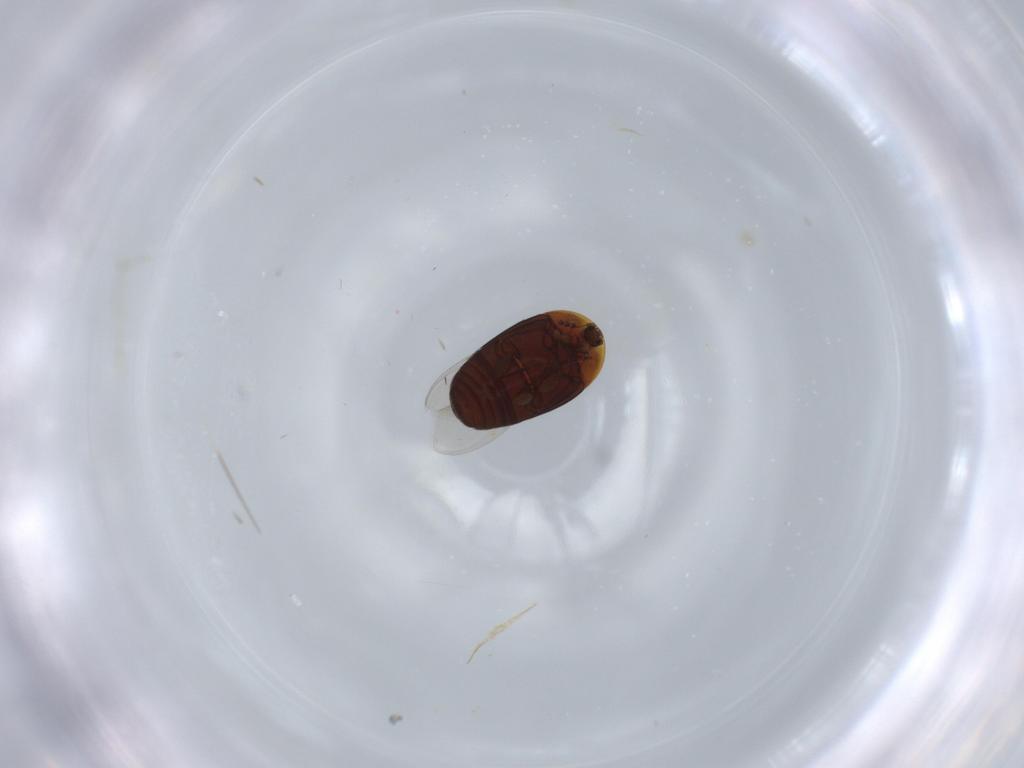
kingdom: Animalia
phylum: Arthropoda
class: Insecta
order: Coleoptera
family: Corylophidae
